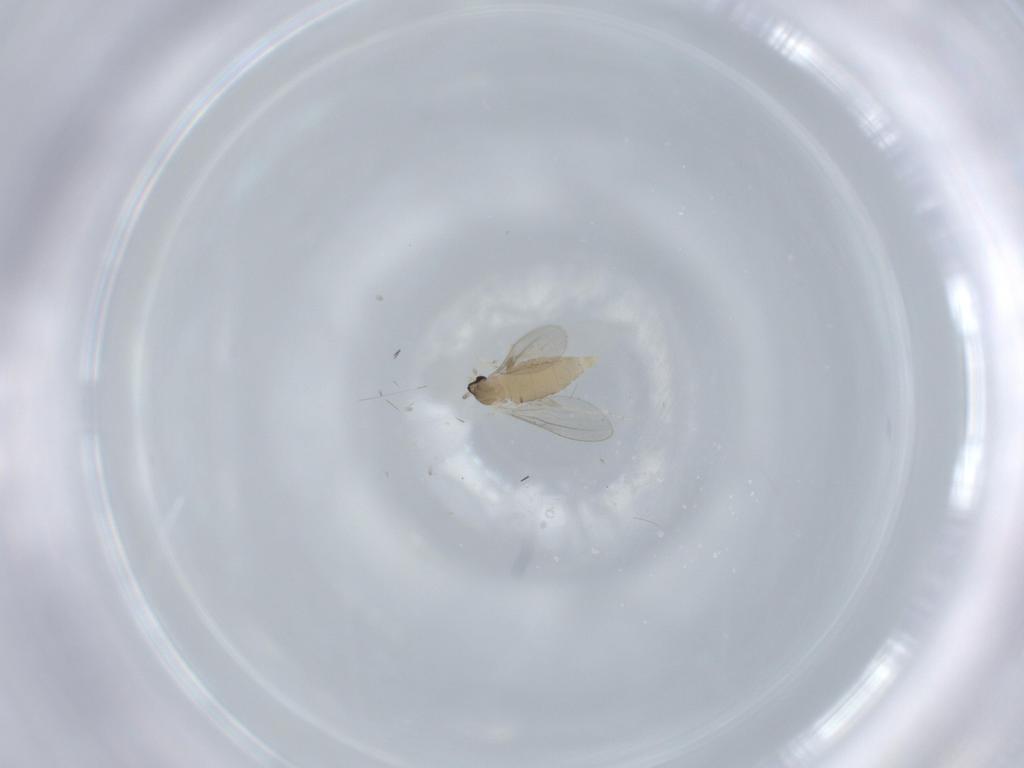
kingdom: Animalia
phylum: Arthropoda
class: Insecta
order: Diptera
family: Cecidomyiidae
